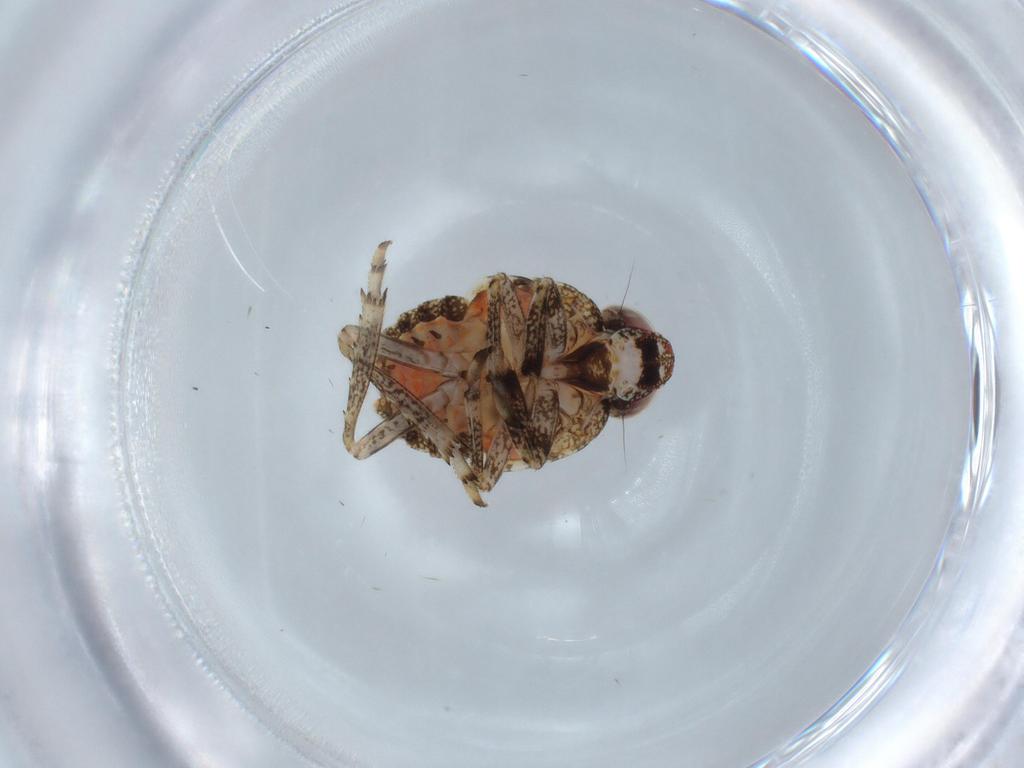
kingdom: Animalia
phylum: Arthropoda
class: Insecta
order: Hemiptera
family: Issidae
